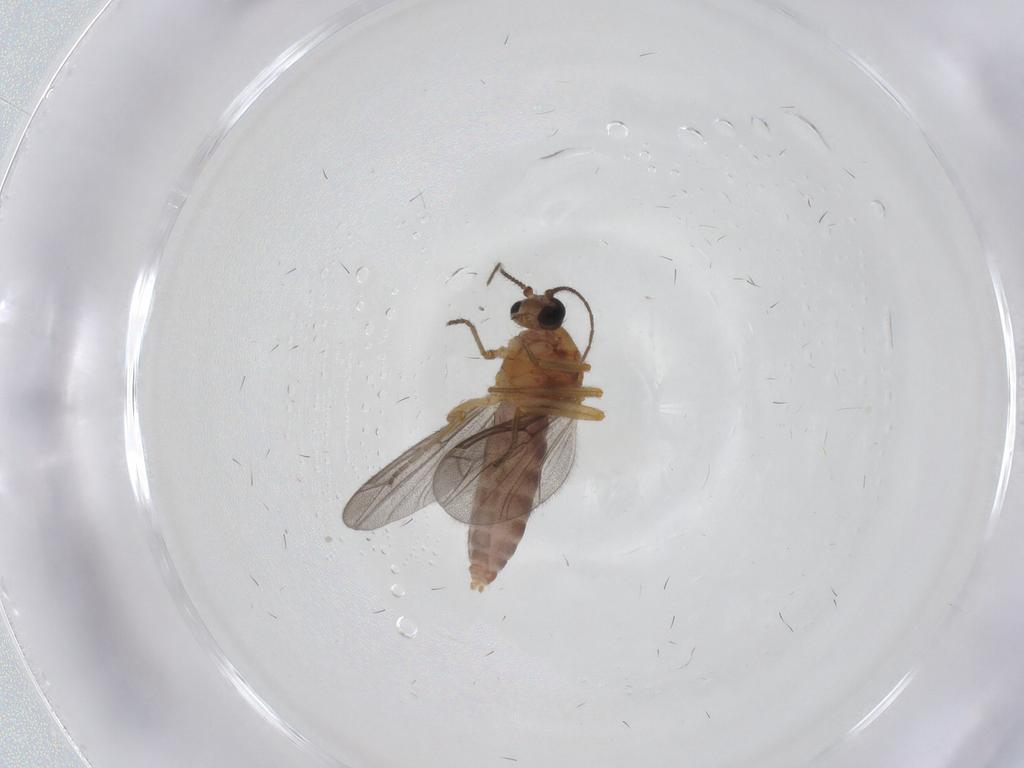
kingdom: Animalia
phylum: Arthropoda
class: Insecta
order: Diptera
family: Ceratopogonidae
